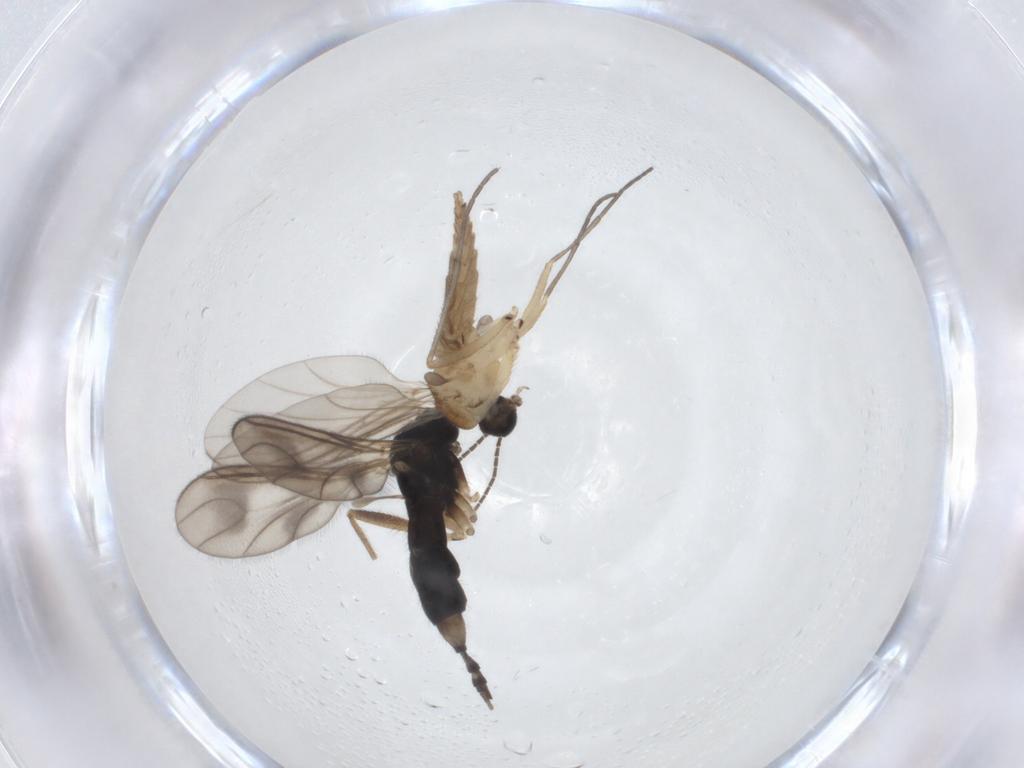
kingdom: Animalia
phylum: Arthropoda
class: Insecta
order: Diptera
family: Sciaridae
